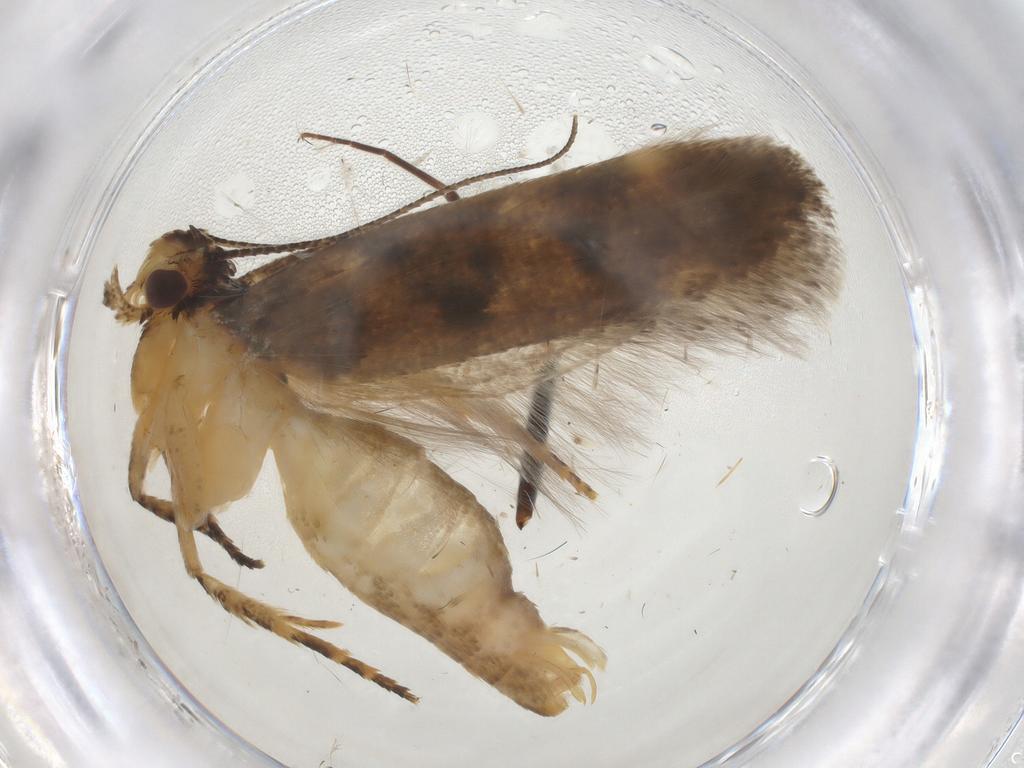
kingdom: Animalia
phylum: Arthropoda
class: Insecta
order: Lepidoptera
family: Gelechiidae
